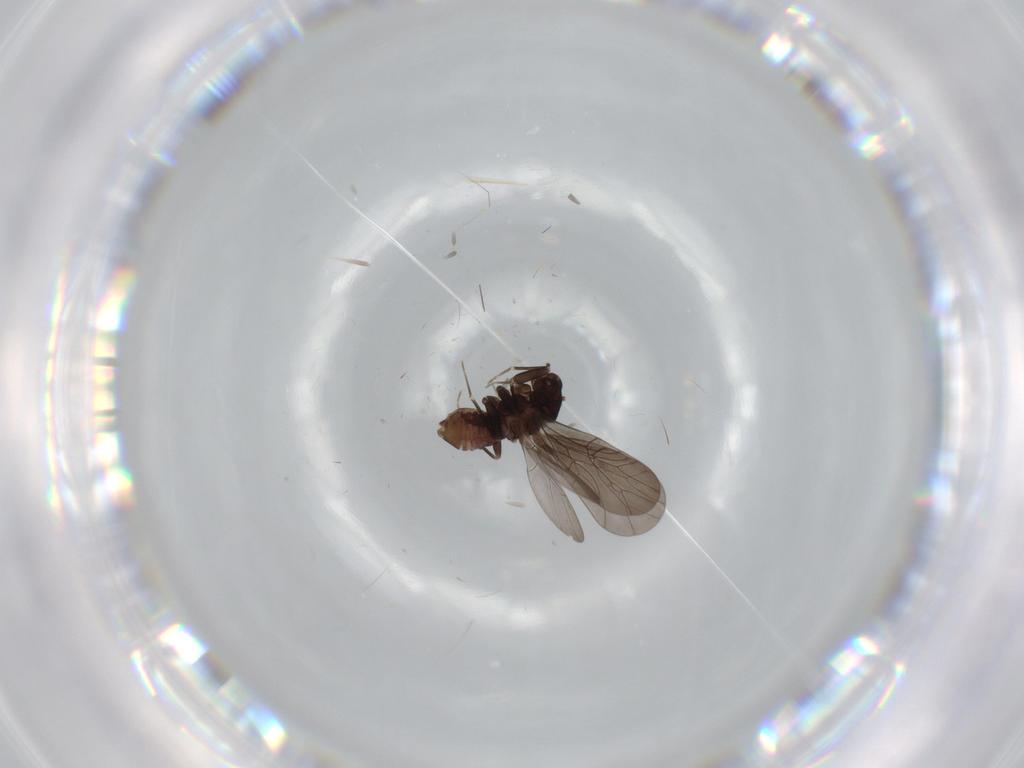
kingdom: Animalia
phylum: Arthropoda
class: Insecta
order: Psocodea
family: Lepidopsocidae
